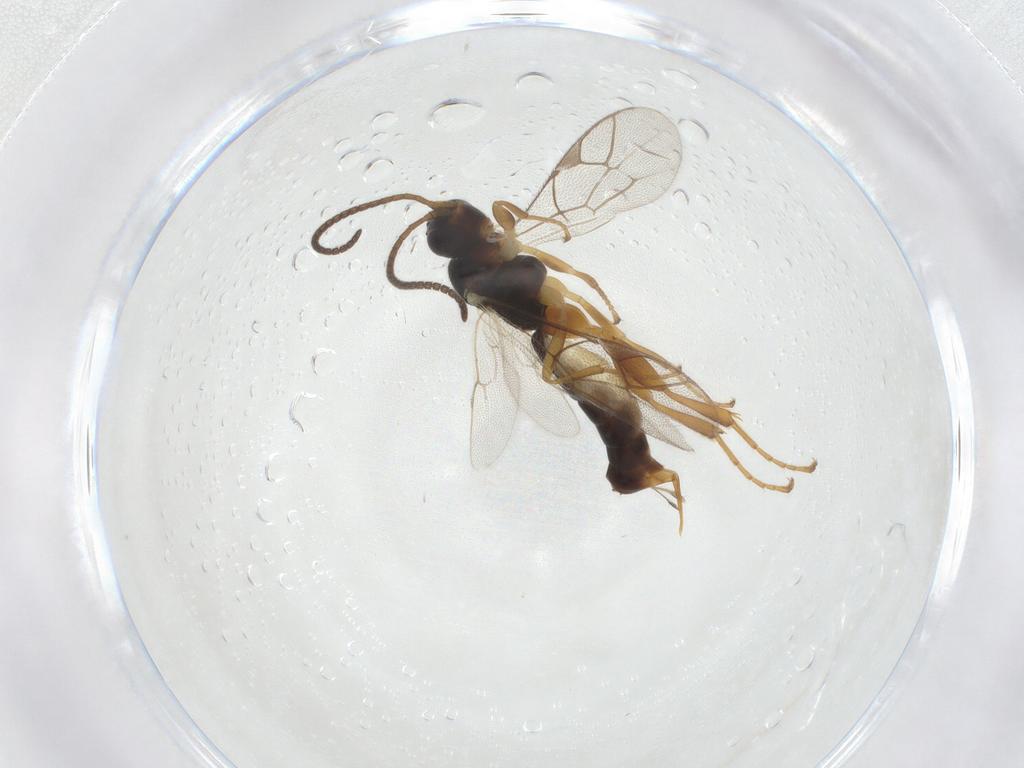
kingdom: Animalia
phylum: Arthropoda
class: Insecta
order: Hymenoptera
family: Ichneumonidae
